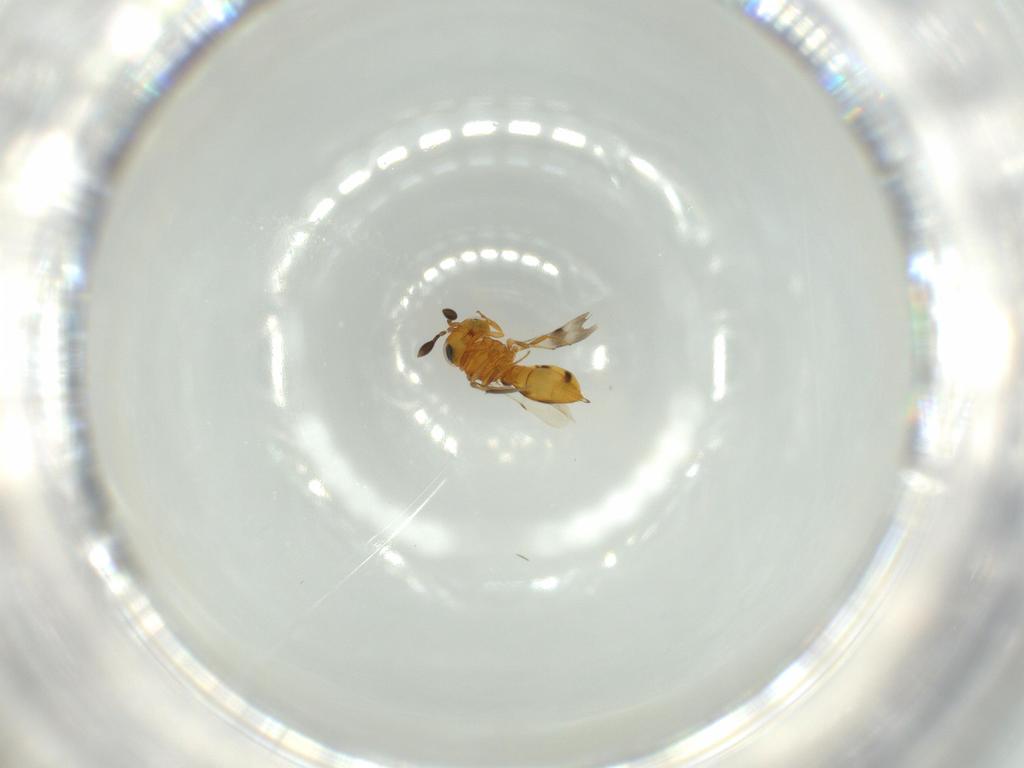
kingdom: Animalia
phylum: Arthropoda
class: Insecta
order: Hymenoptera
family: Scelionidae
